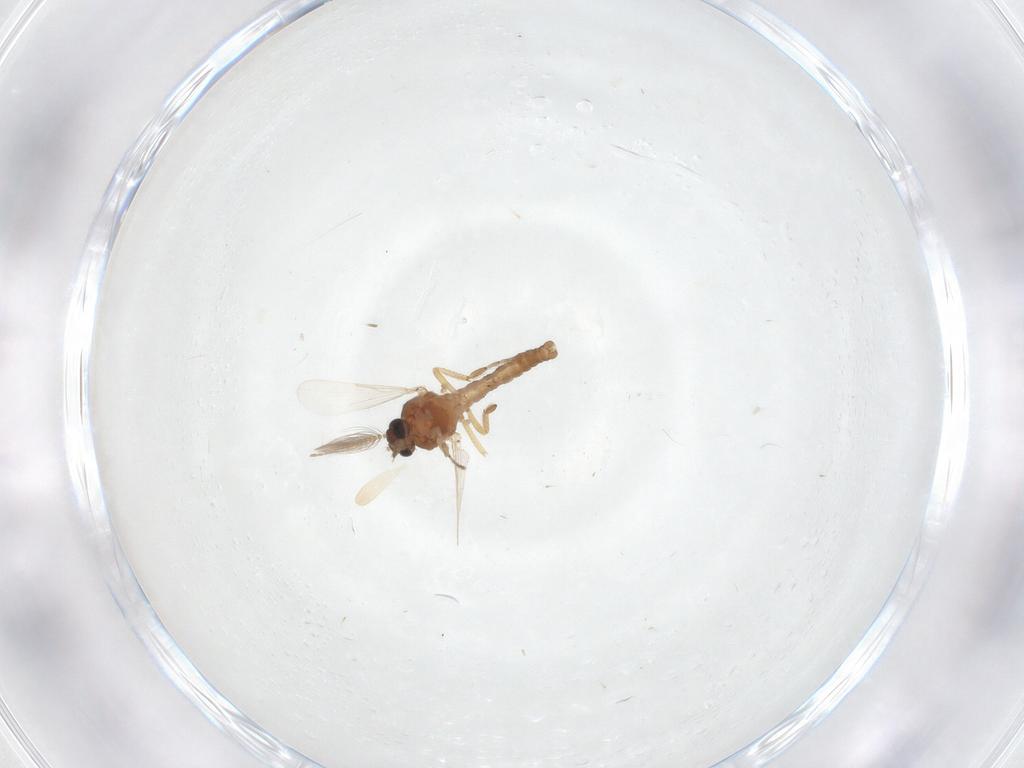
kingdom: Animalia
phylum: Arthropoda
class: Insecta
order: Diptera
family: Ceratopogonidae
